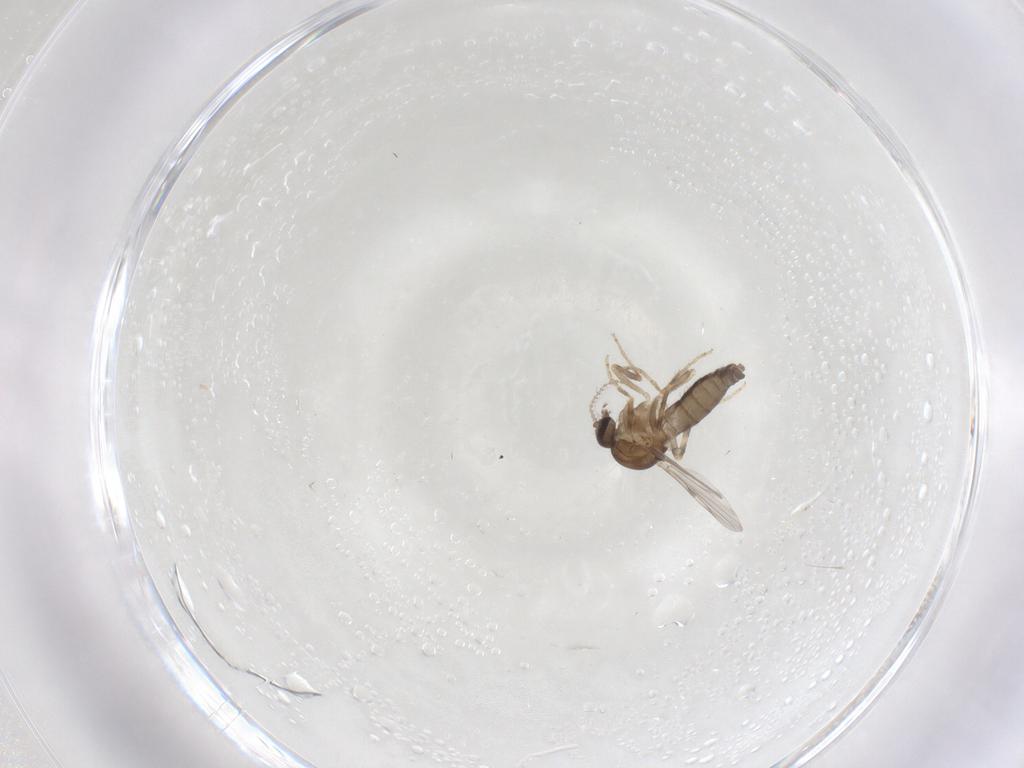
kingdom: Animalia
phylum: Arthropoda
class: Insecta
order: Diptera
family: Ceratopogonidae
